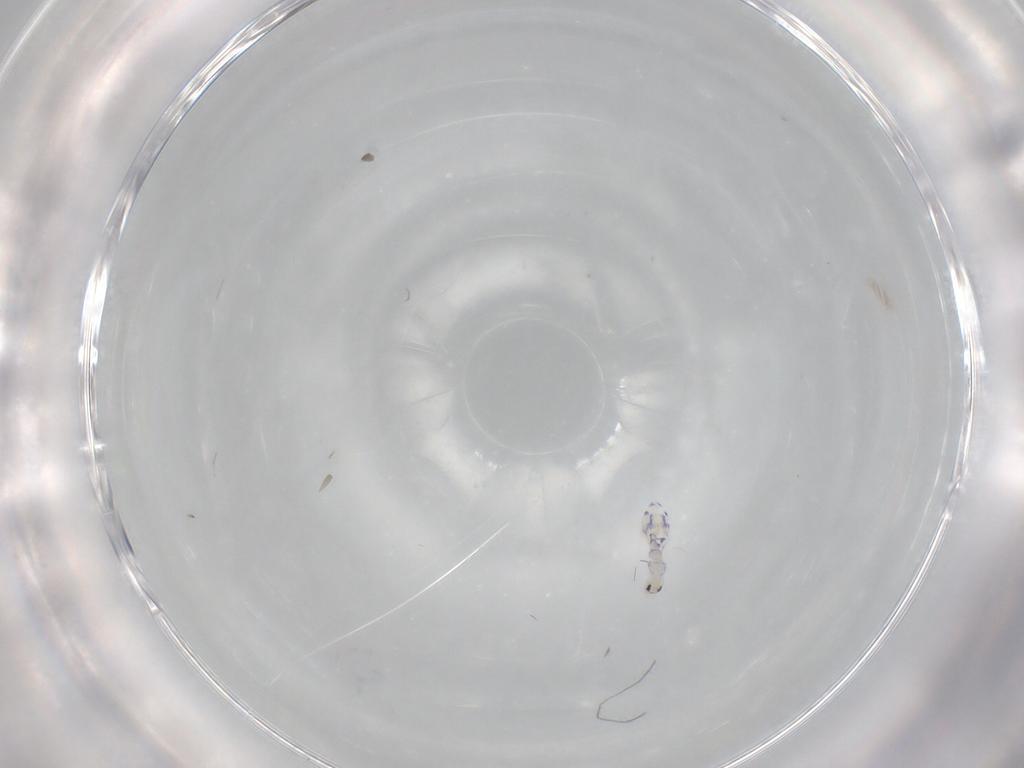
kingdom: Animalia
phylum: Arthropoda
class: Collembola
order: Entomobryomorpha
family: Entomobryidae
